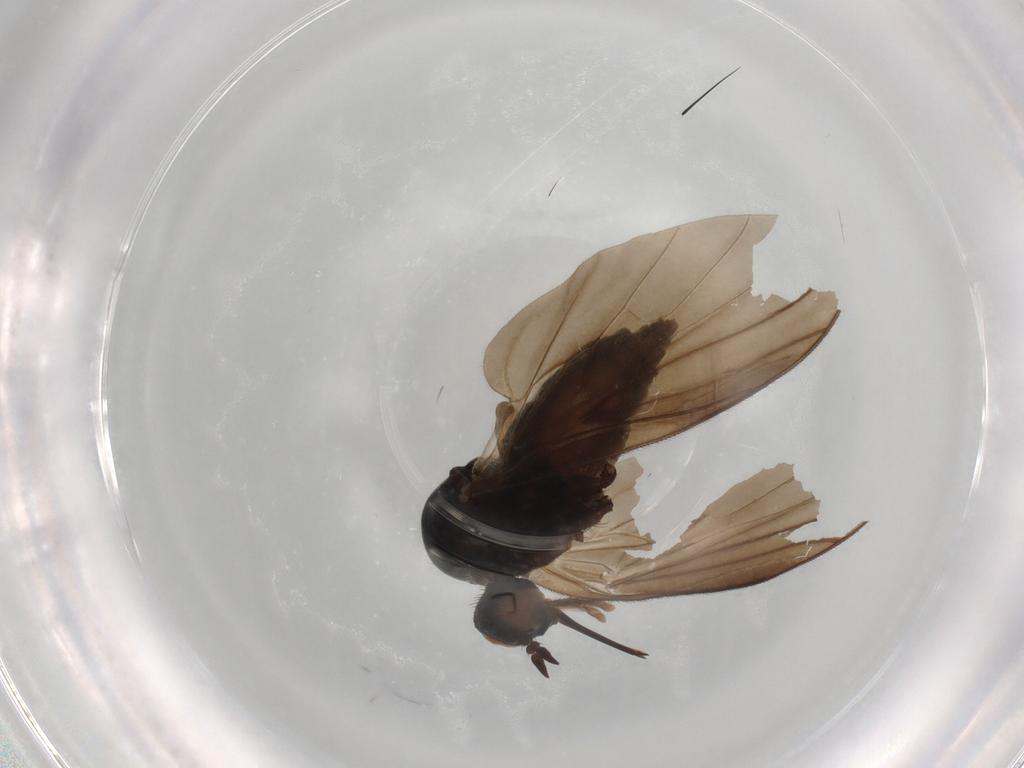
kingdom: Animalia
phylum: Arthropoda
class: Insecta
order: Diptera
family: Empididae
